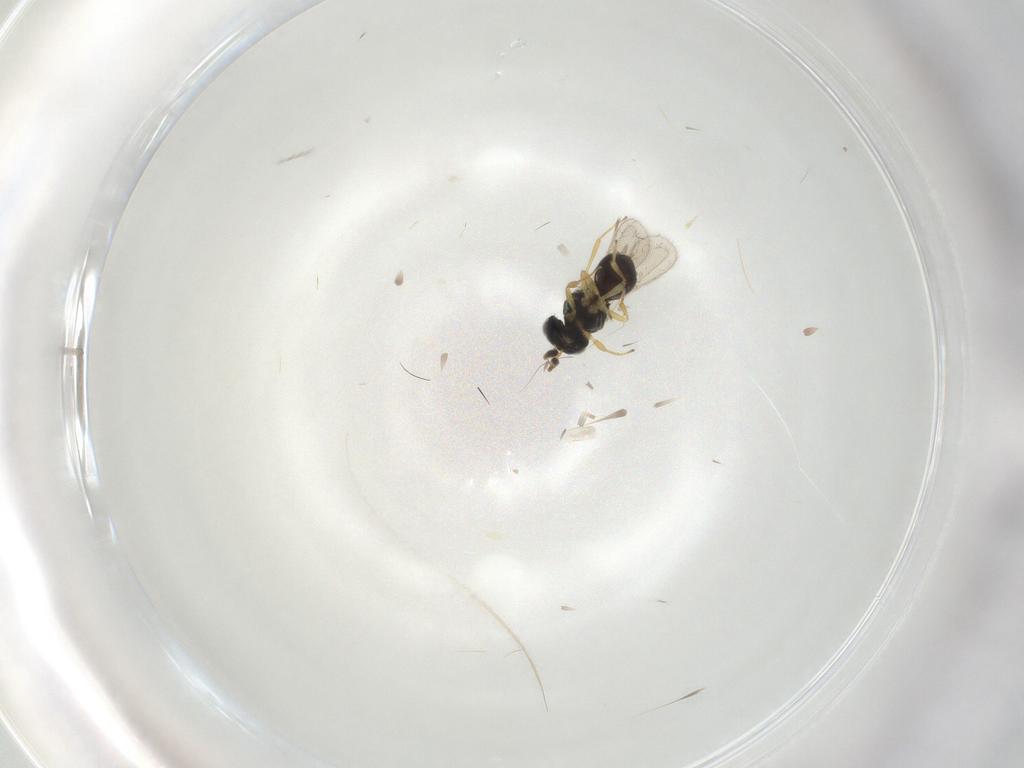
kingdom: Animalia
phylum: Arthropoda
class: Insecta
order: Hymenoptera
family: Scelionidae
